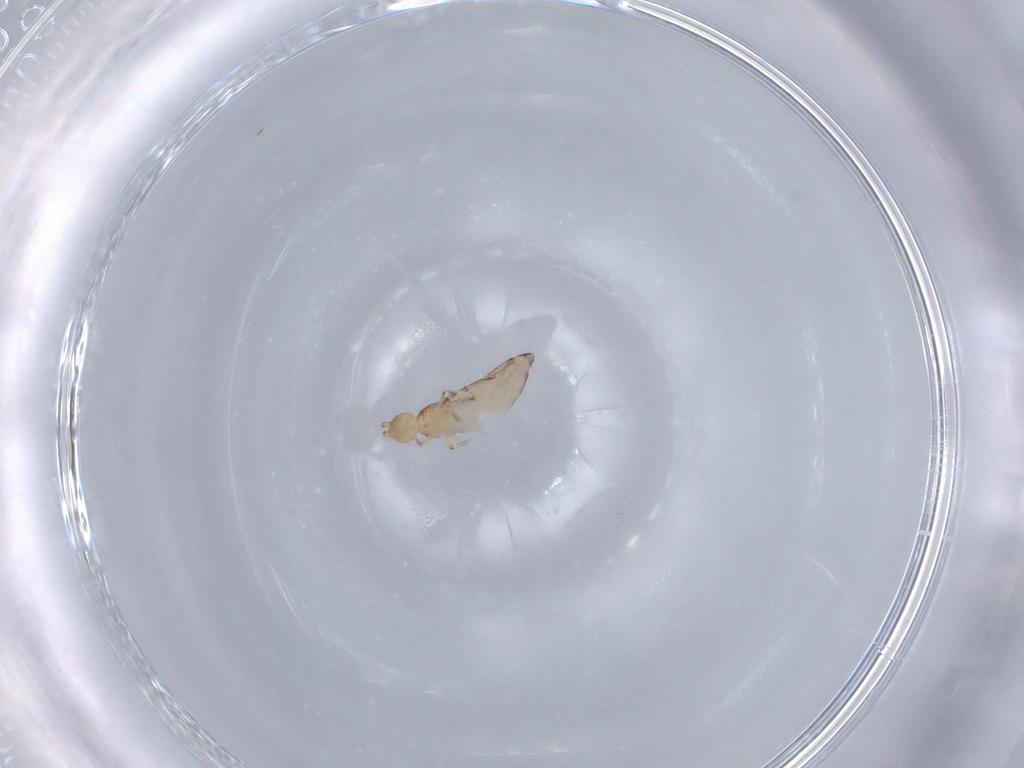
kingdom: Animalia
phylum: Arthropoda
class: Collembola
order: Entomobryomorpha
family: Entomobryidae
